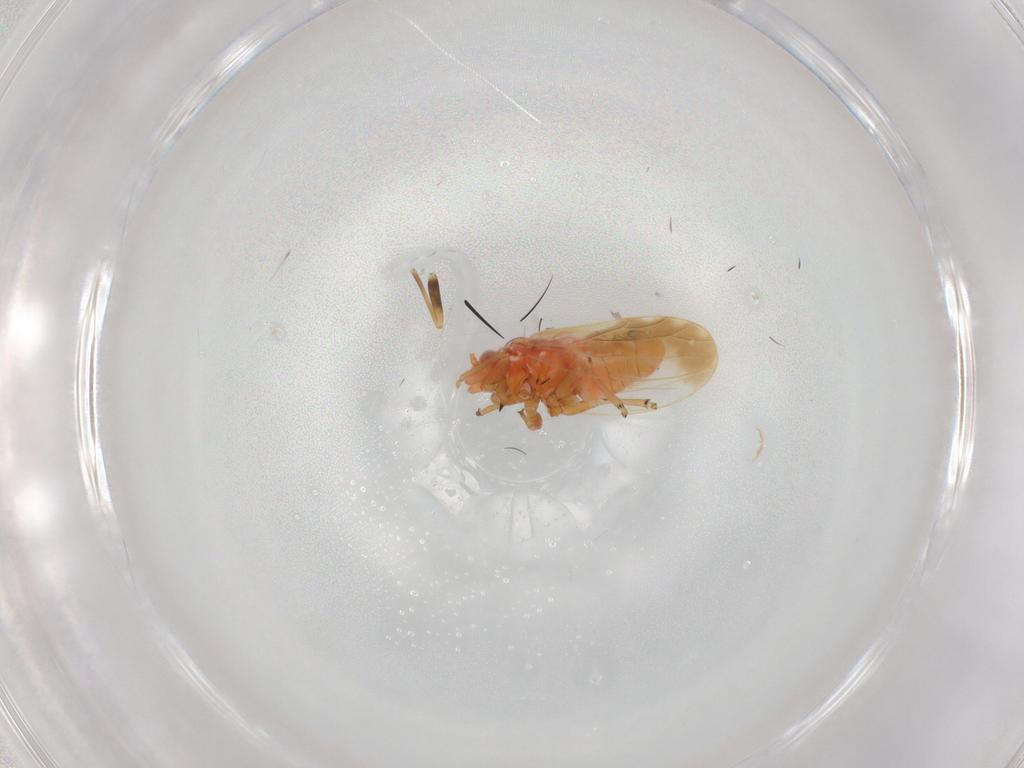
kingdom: Animalia
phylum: Arthropoda
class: Insecta
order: Hemiptera
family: Cicadellidae
